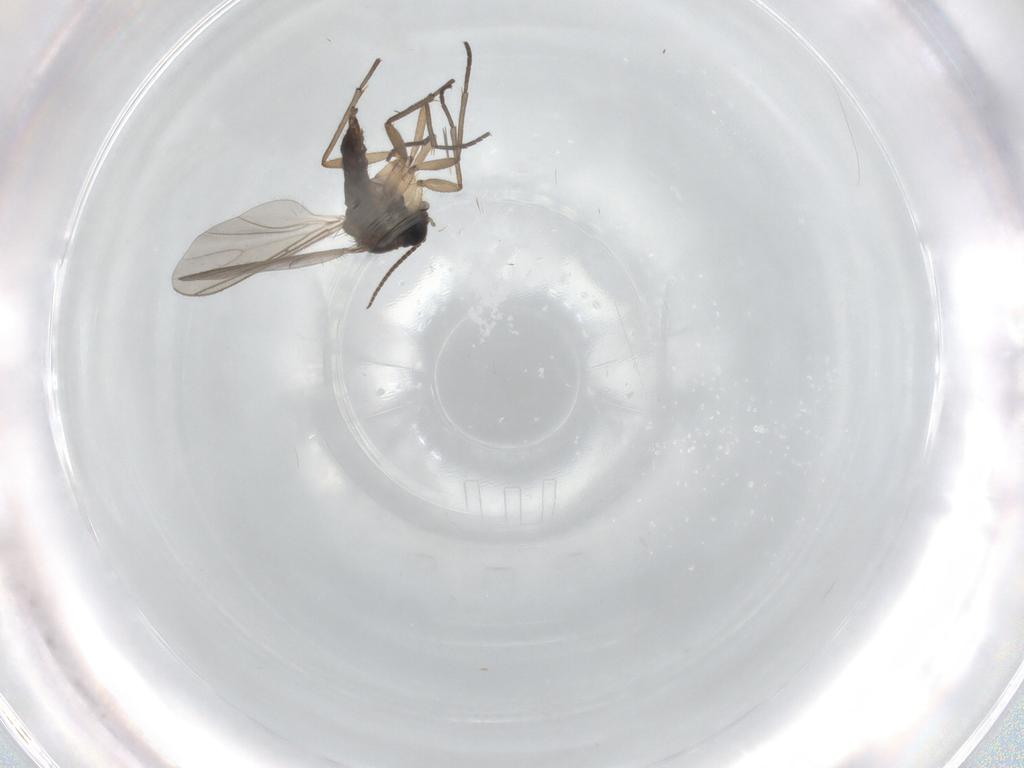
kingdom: Animalia
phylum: Arthropoda
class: Insecta
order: Diptera
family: Sciaridae
